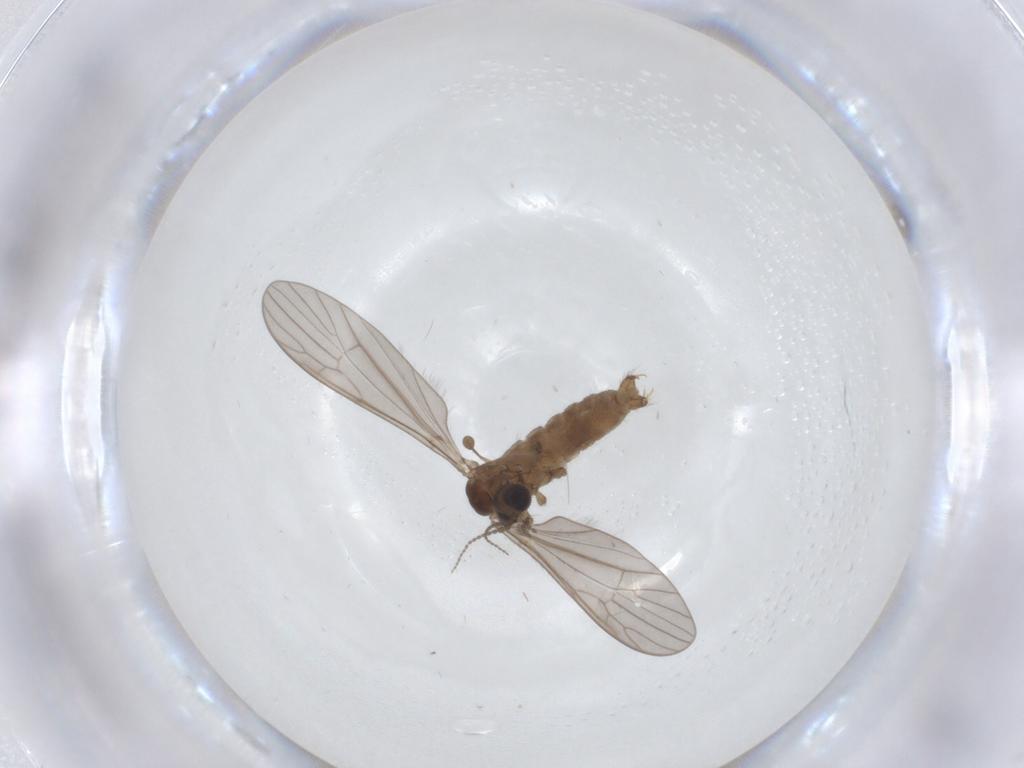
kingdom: Animalia
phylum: Arthropoda
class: Insecta
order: Diptera
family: Limoniidae
